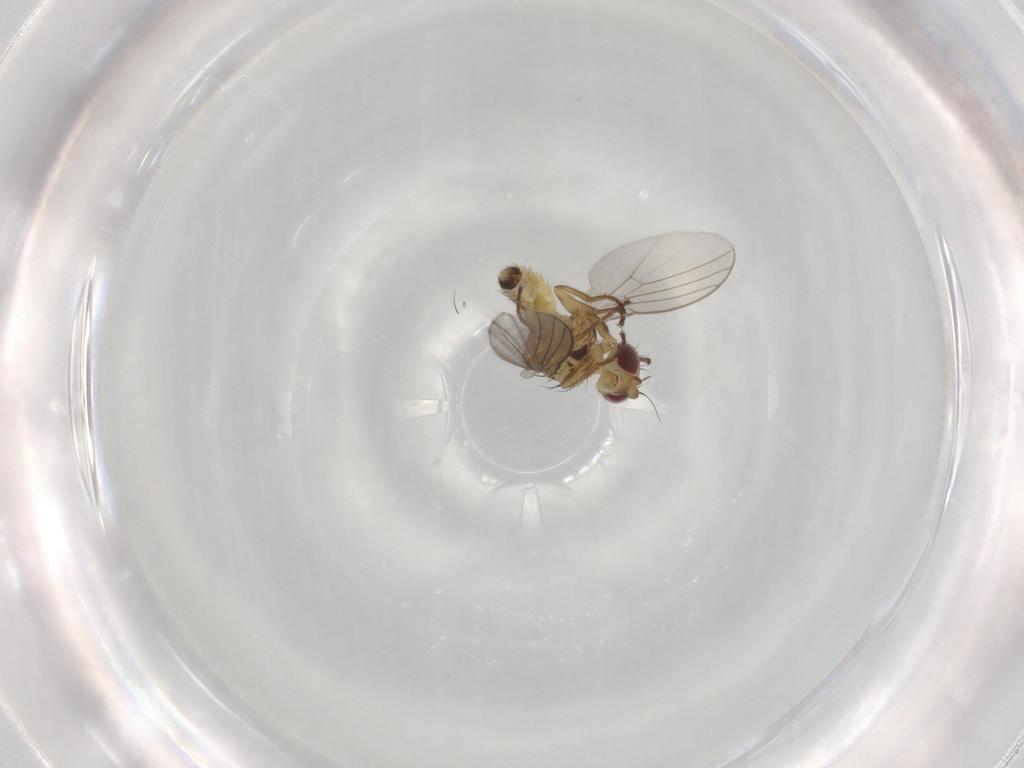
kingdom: Animalia
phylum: Arthropoda
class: Insecta
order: Diptera
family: Agromyzidae
